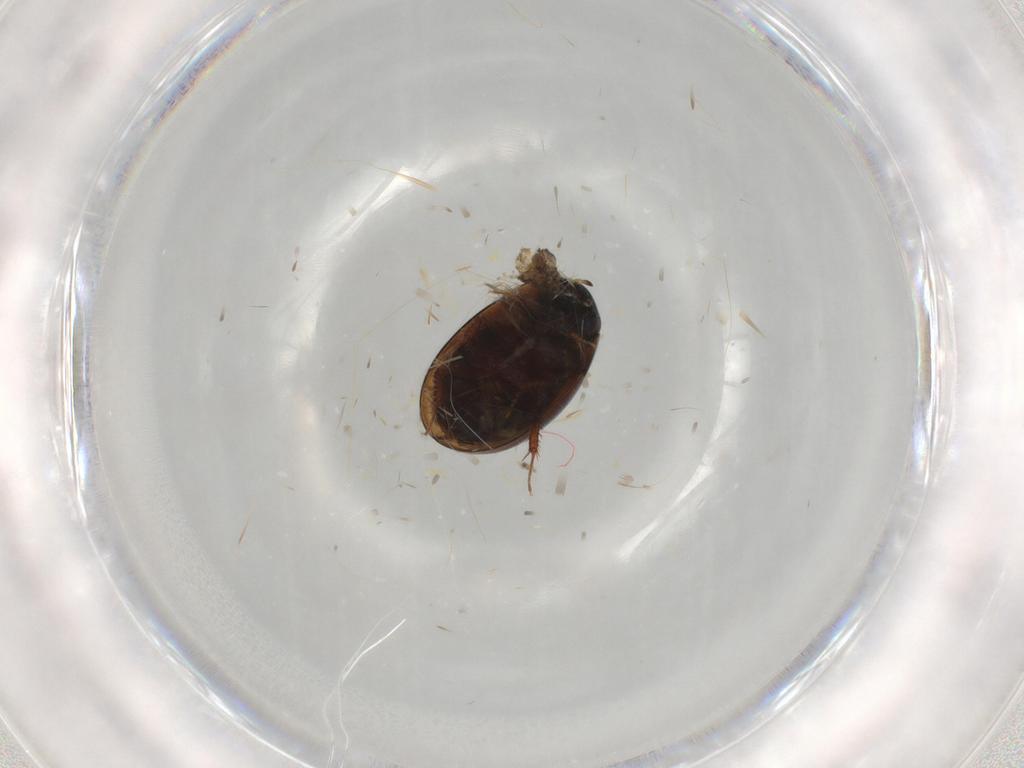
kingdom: Animalia
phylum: Arthropoda
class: Insecta
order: Coleoptera
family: Hydrophilidae
